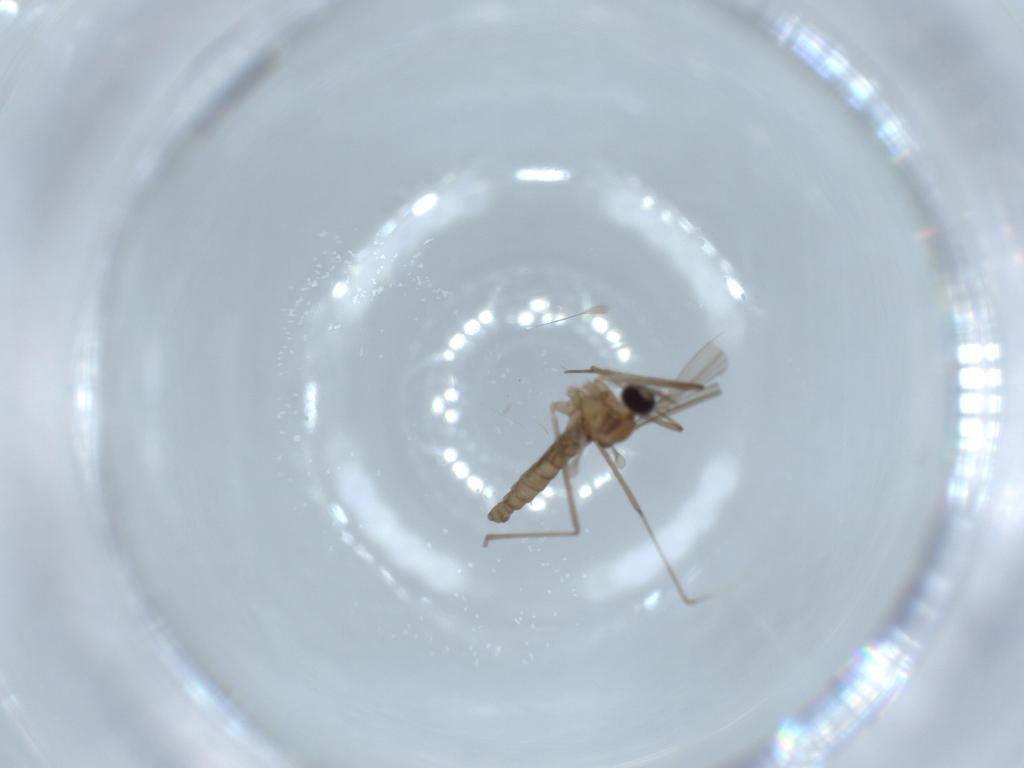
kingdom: Animalia
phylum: Arthropoda
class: Insecta
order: Diptera
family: Cecidomyiidae
